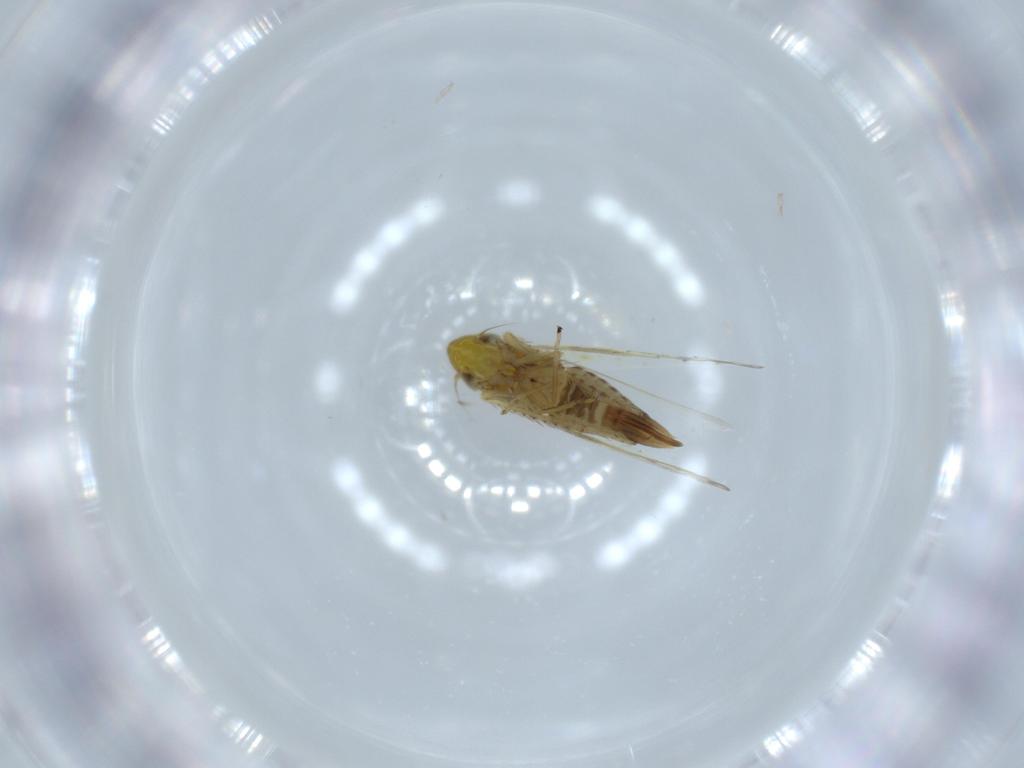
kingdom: Animalia
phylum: Arthropoda
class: Insecta
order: Hemiptera
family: Cicadellidae
